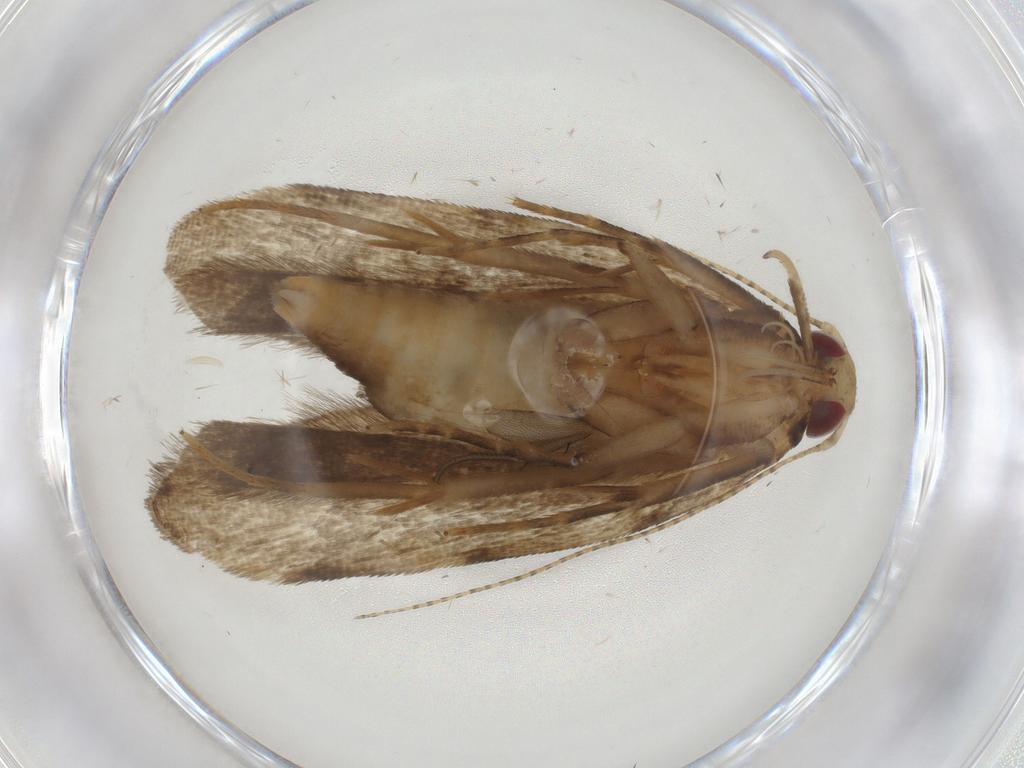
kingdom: Animalia
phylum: Arthropoda
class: Insecta
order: Lepidoptera
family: Gelechiidae
